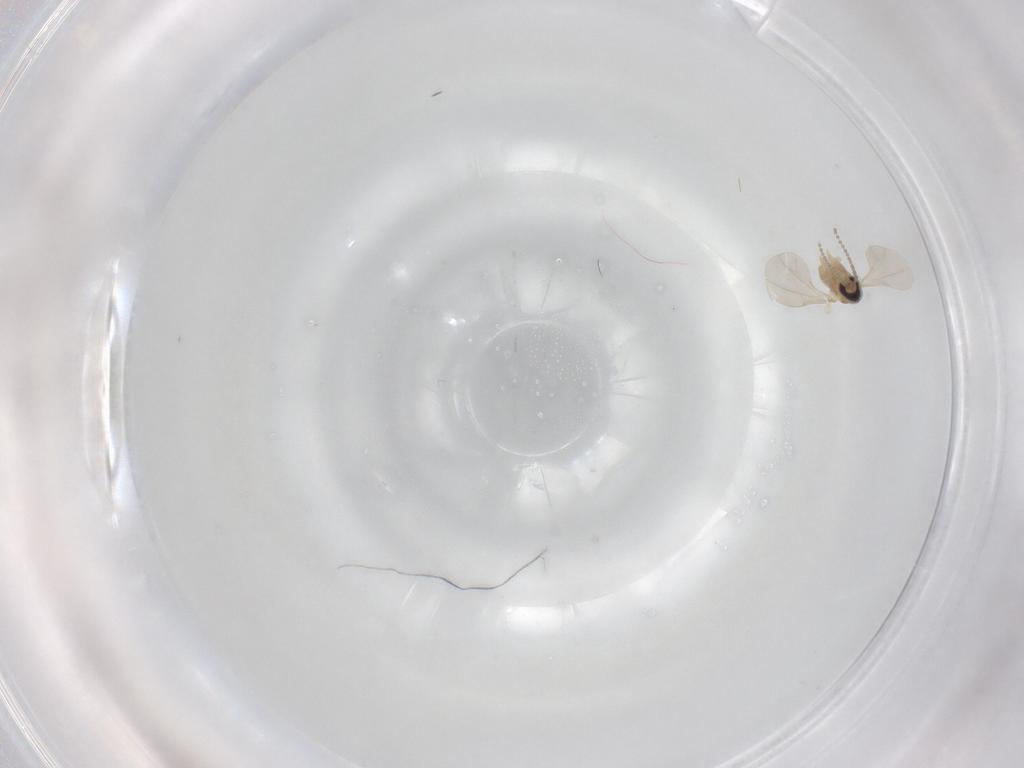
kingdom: Animalia
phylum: Arthropoda
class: Insecta
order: Diptera
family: Cecidomyiidae
